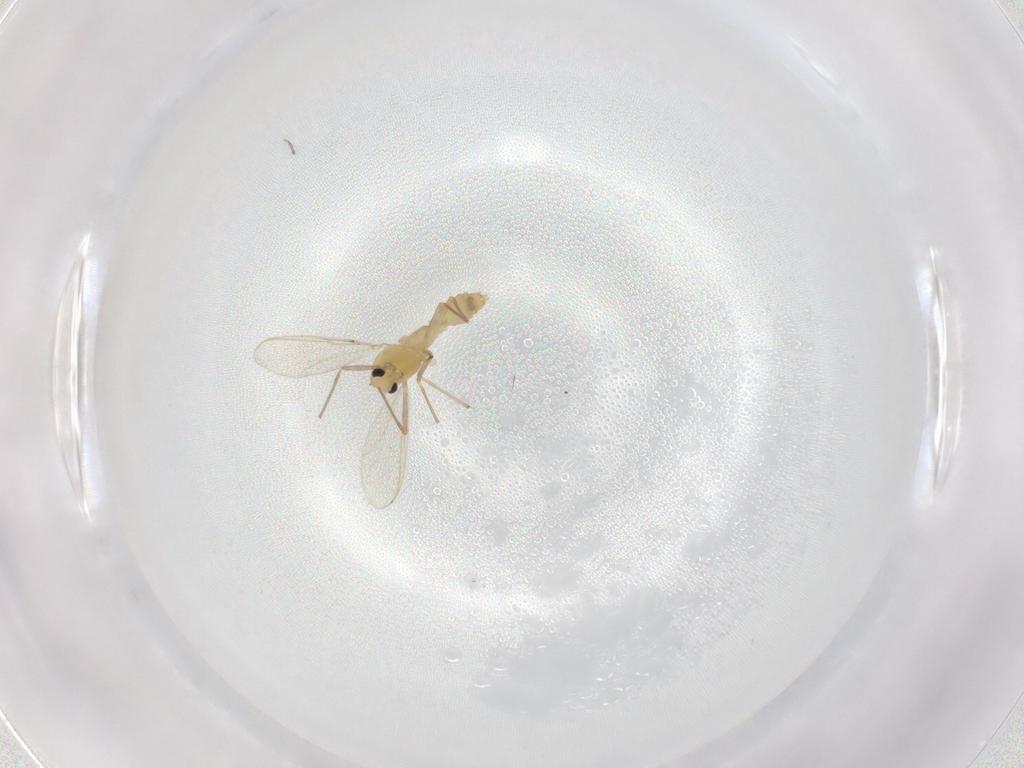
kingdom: Animalia
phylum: Arthropoda
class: Insecta
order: Diptera
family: Chironomidae
